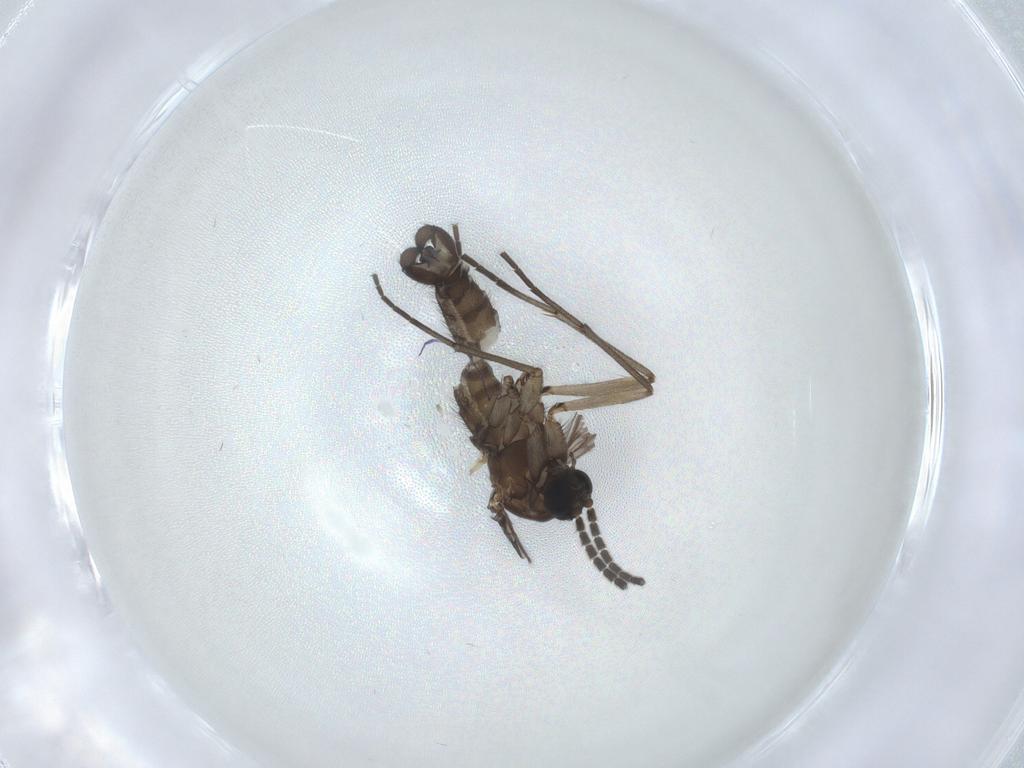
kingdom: Animalia
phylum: Arthropoda
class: Insecta
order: Diptera
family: Sciaridae
